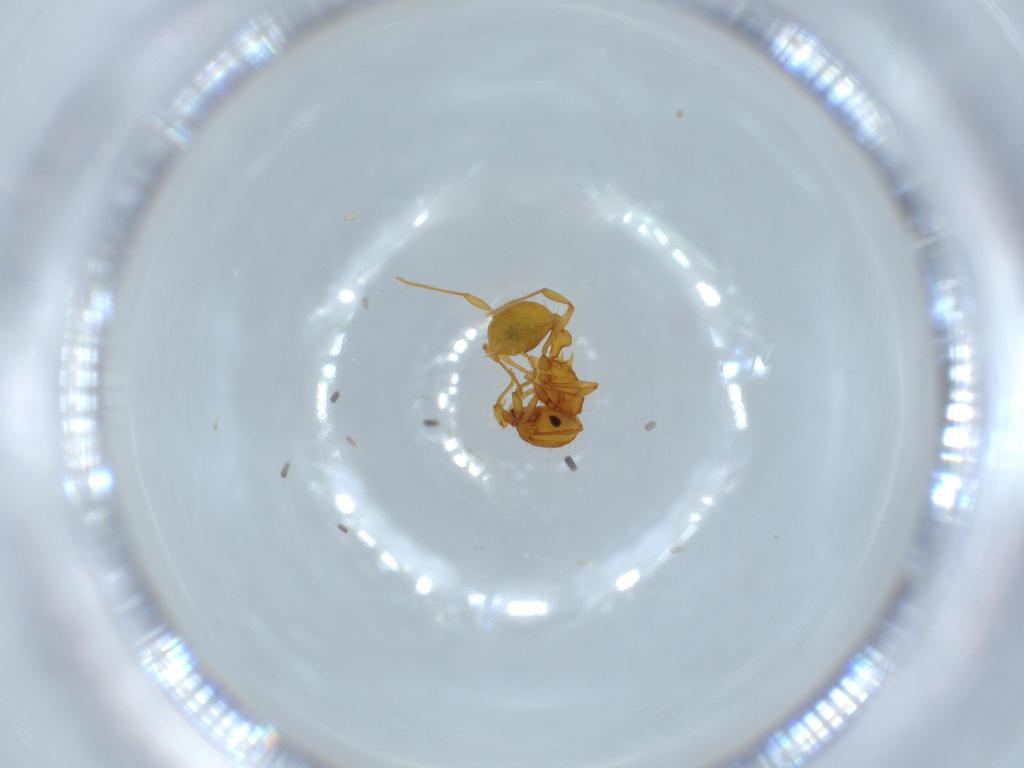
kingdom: Animalia
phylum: Arthropoda
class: Insecta
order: Hymenoptera
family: Formicidae
